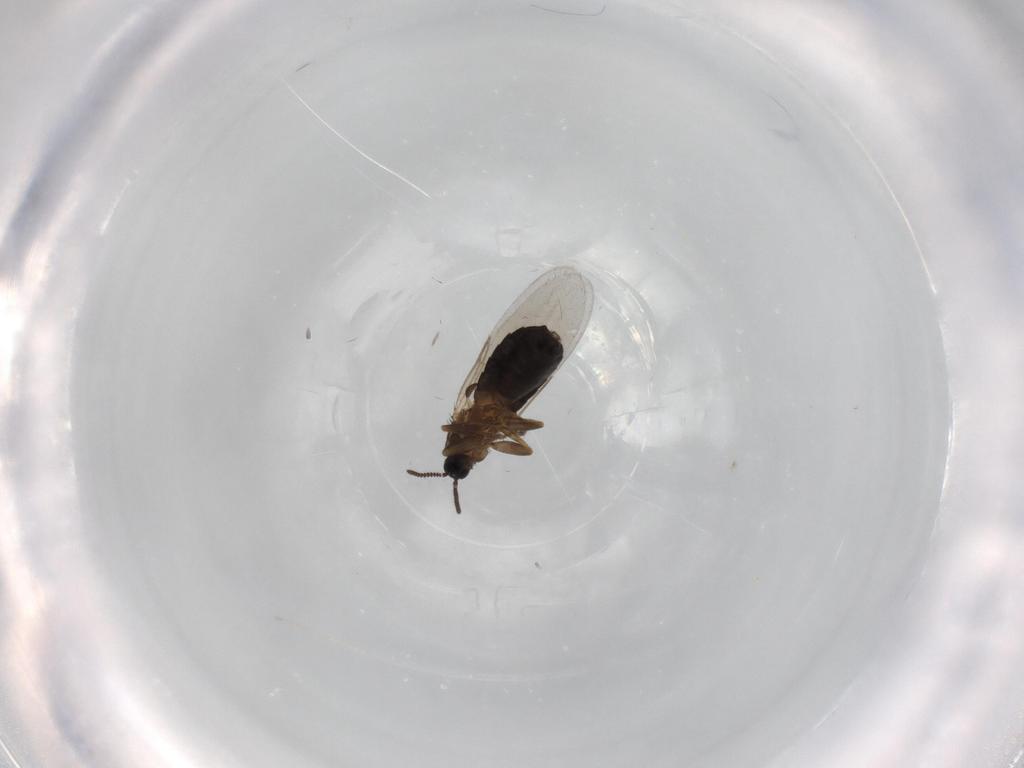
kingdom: Animalia
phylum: Arthropoda
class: Insecta
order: Diptera
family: Scatopsidae
